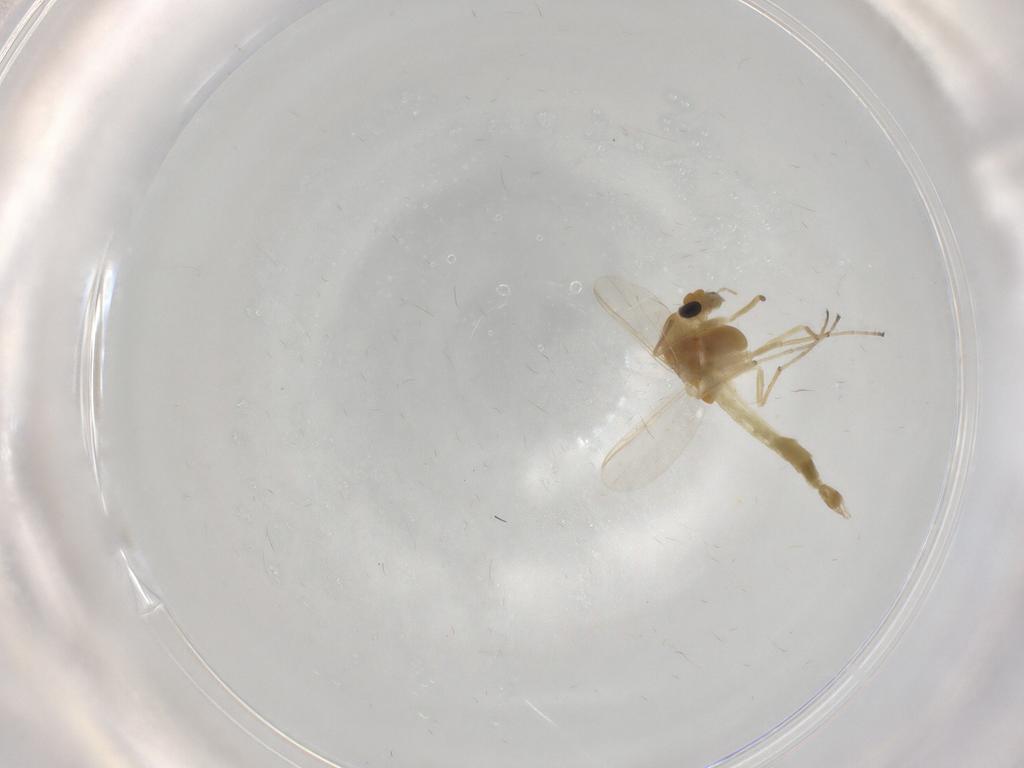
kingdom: Animalia
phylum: Arthropoda
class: Insecta
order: Diptera
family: Chironomidae
